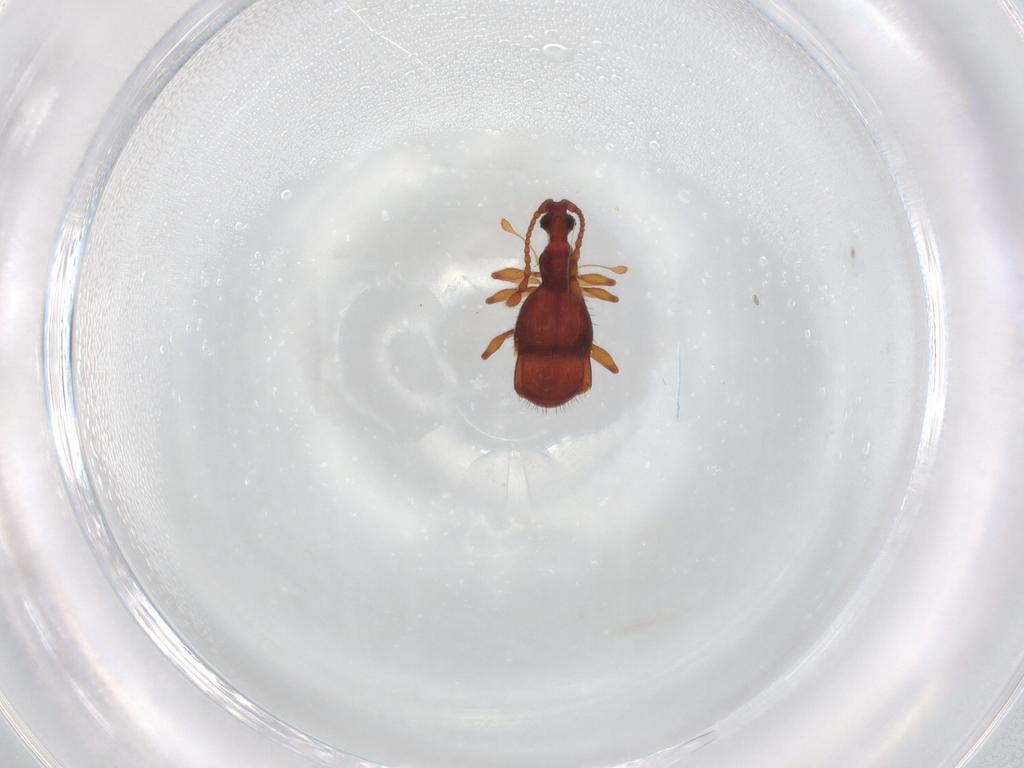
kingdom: Animalia
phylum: Arthropoda
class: Insecta
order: Coleoptera
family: Staphylinidae
